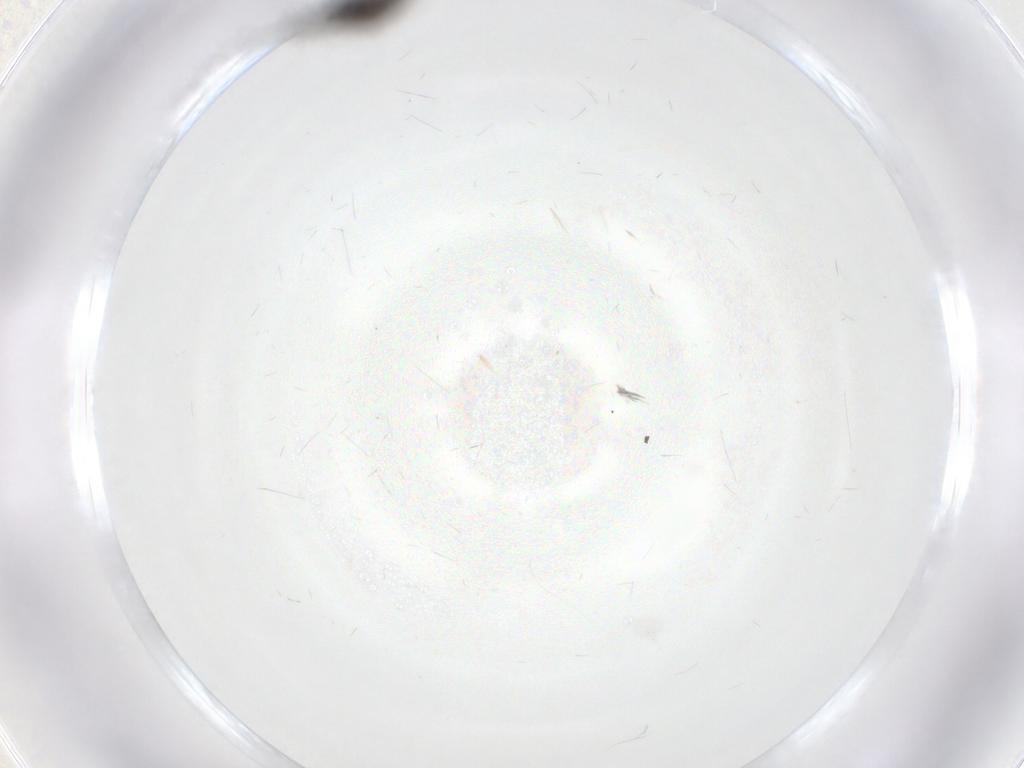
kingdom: Animalia
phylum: Arthropoda
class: Insecta
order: Trichoptera
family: Hydroptilidae
